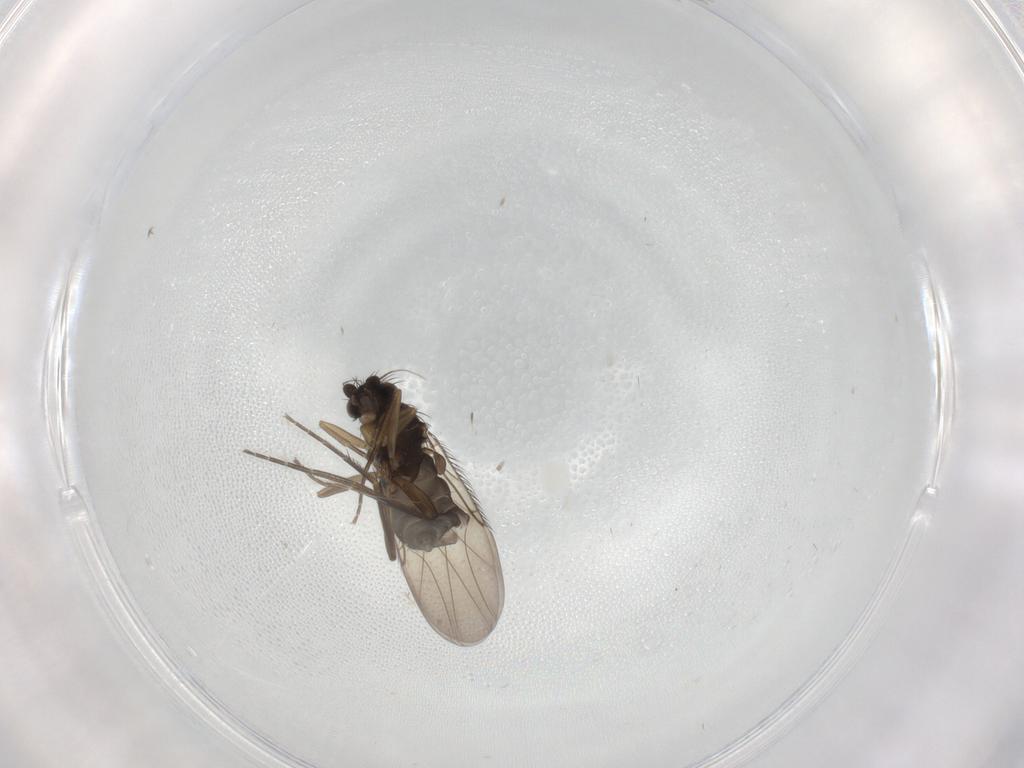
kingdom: Animalia
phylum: Arthropoda
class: Insecta
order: Diptera
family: Phoridae
